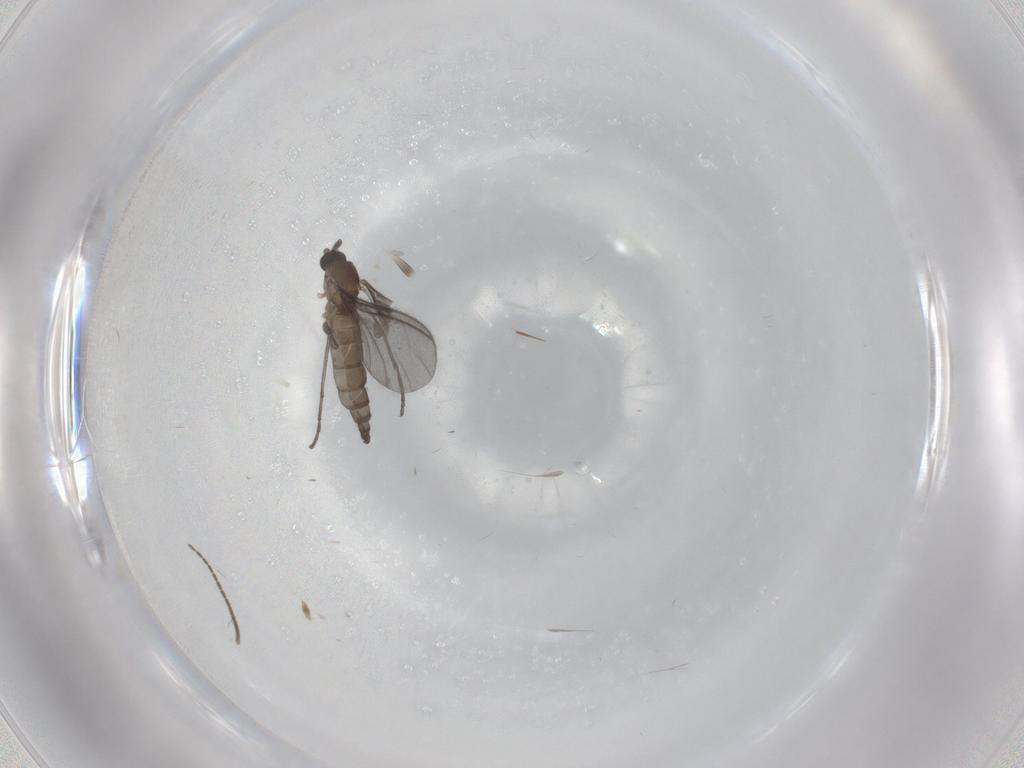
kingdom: Animalia
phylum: Arthropoda
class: Insecta
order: Diptera
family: Sciaridae
